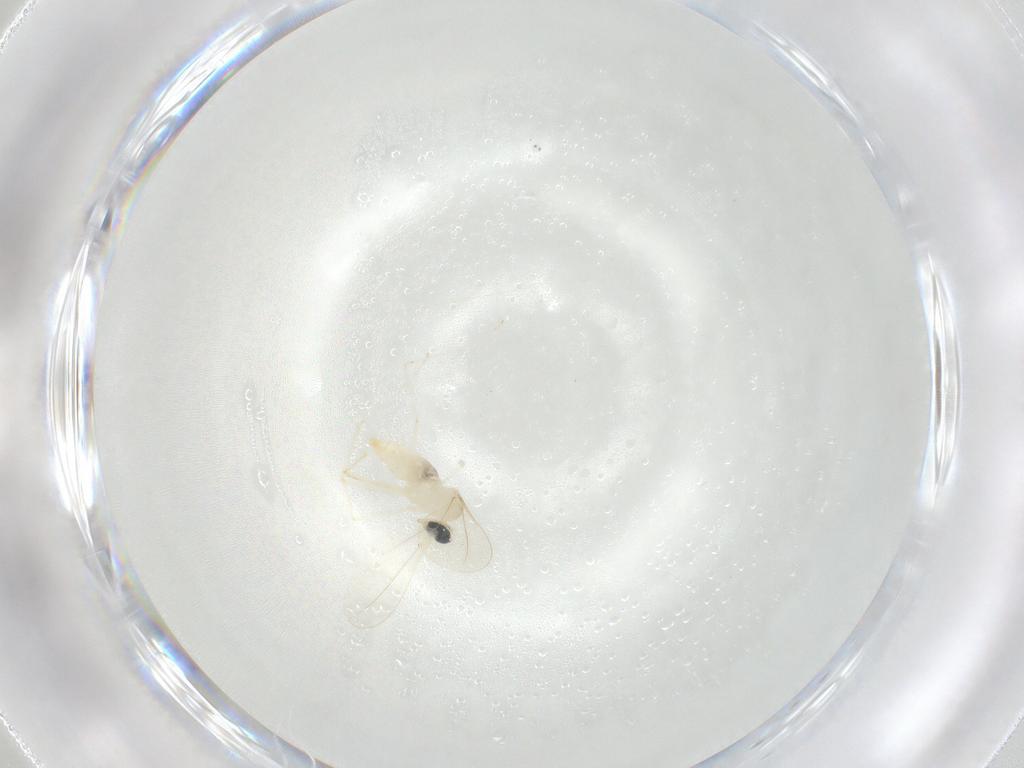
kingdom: Animalia
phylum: Arthropoda
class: Insecta
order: Diptera
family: Cecidomyiidae
